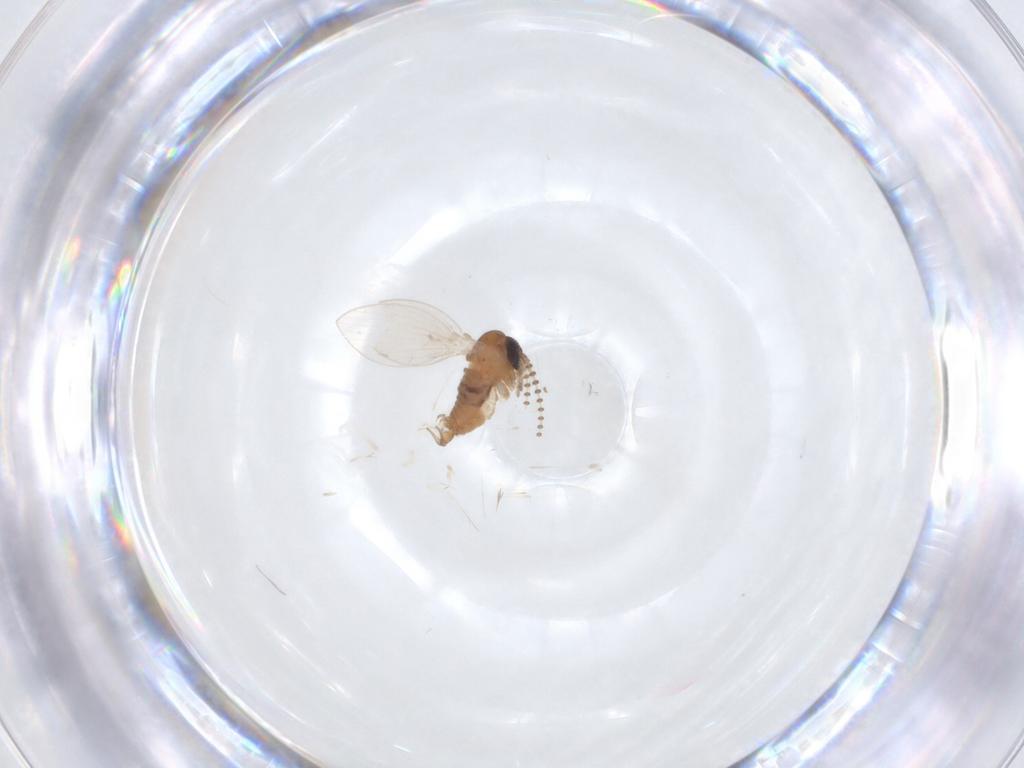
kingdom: Animalia
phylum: Arthropoda
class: Insecta
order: Diptera
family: Psychodidae
